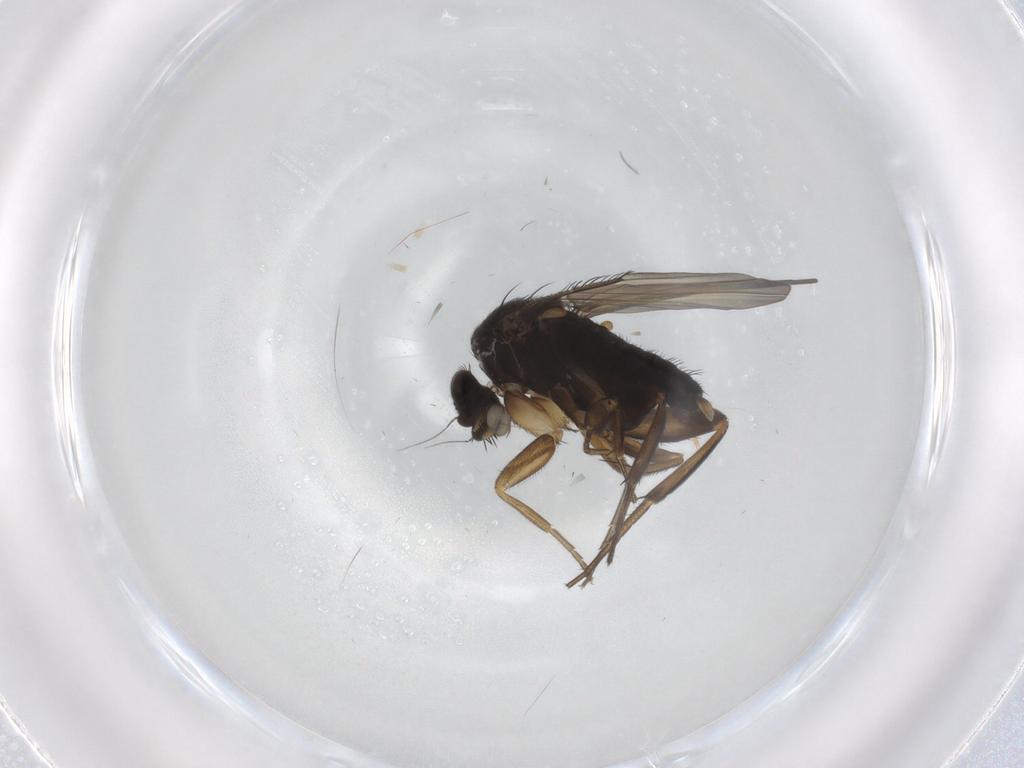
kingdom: Animalia
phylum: Arthropoda
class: Insecta
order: Diptera
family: Phoridae
